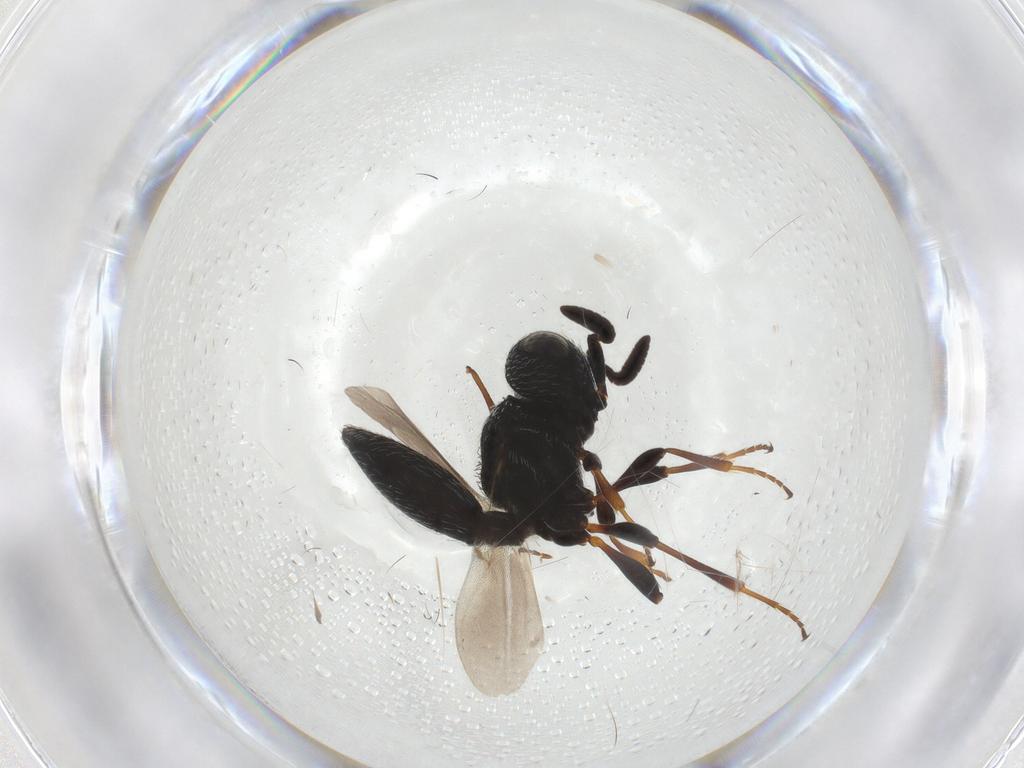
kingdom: Animalia
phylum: Arthropoda
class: Insecta
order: Hymenoptera
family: Scelionidae
